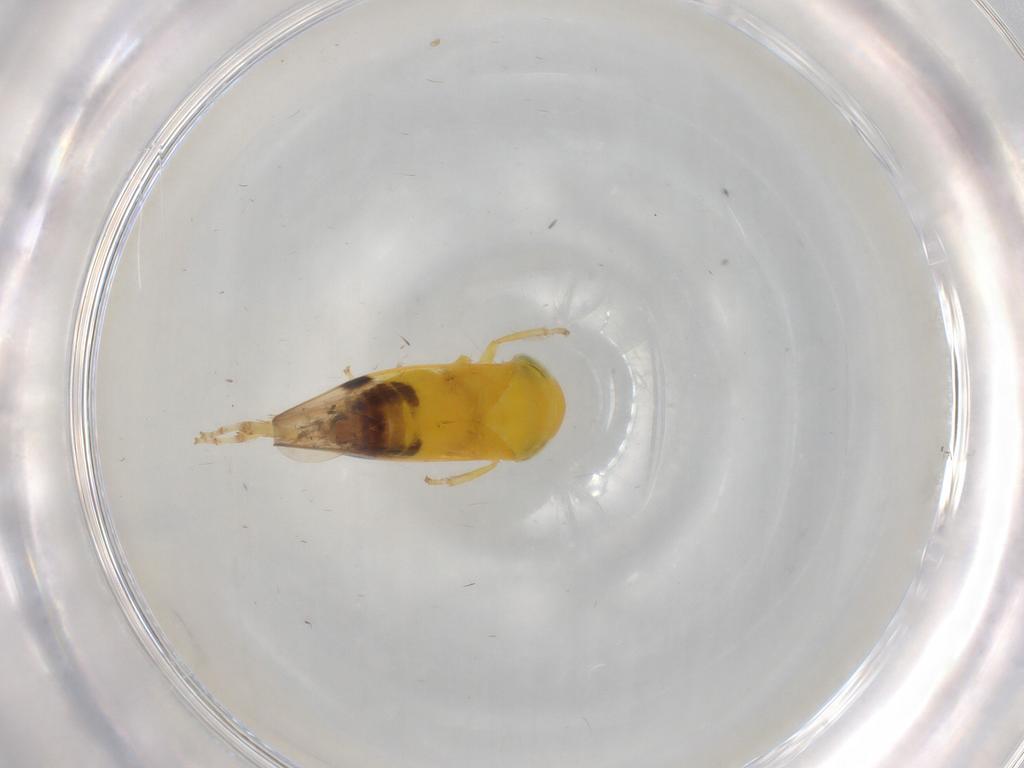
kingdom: Animalia
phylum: Arthropoda
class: Insecta
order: Hemiptera
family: Cicadellidae
